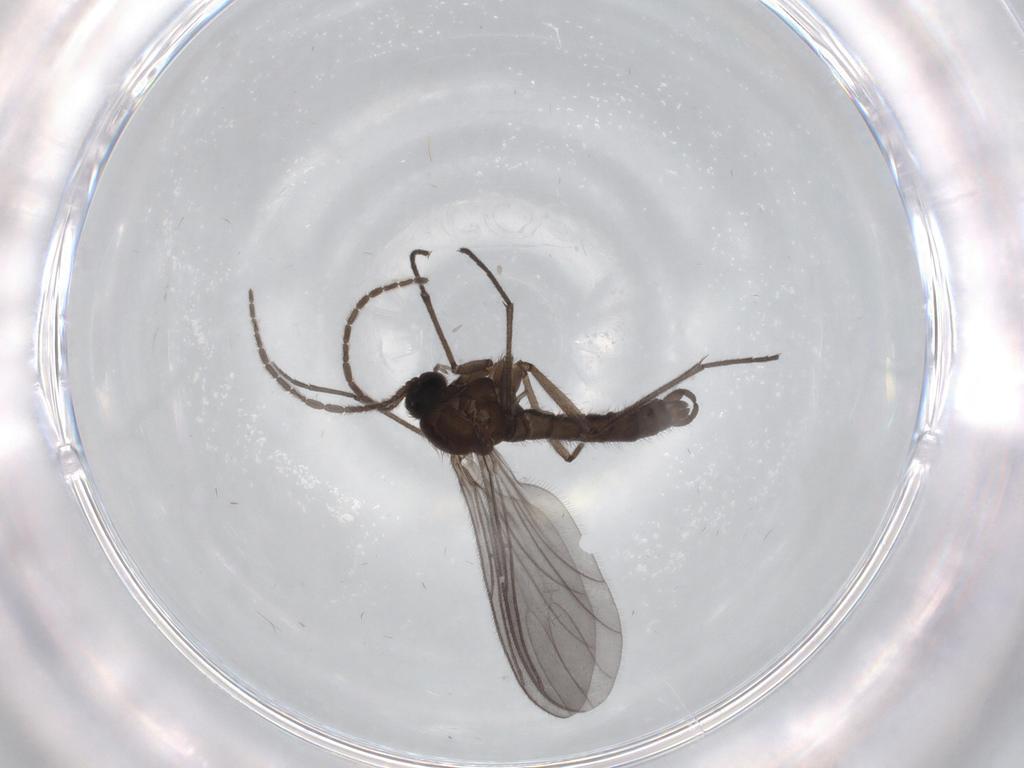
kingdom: Animalia
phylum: Arthropoda
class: Insecta
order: Diptera
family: Sciaridae
